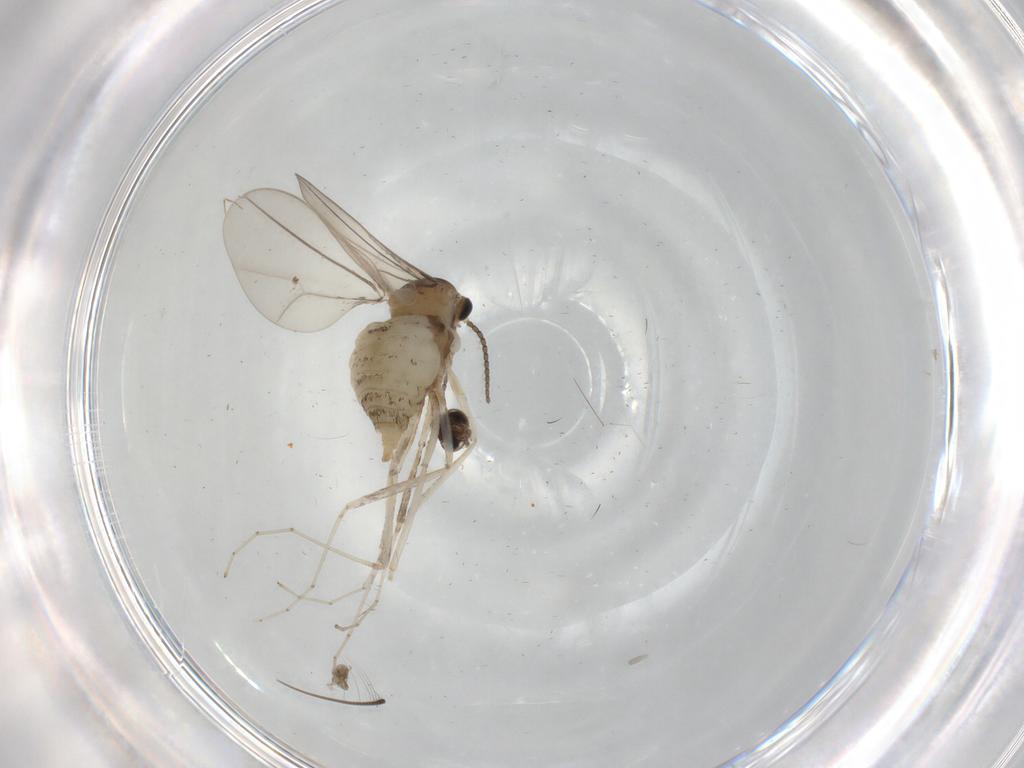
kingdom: Animalia
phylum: Arthropoda
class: Insecta
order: Diptera
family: Cecidomyiidae
